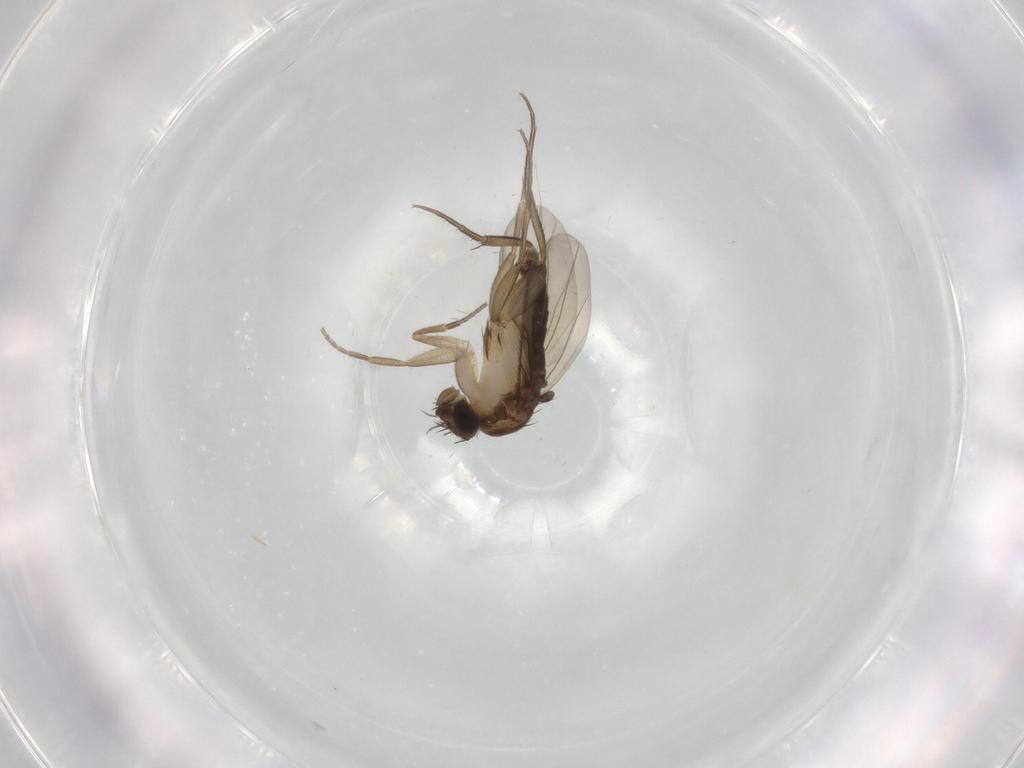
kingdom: Animalia
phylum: Arthropoda
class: Insecta
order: Diptera
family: Phoridae
